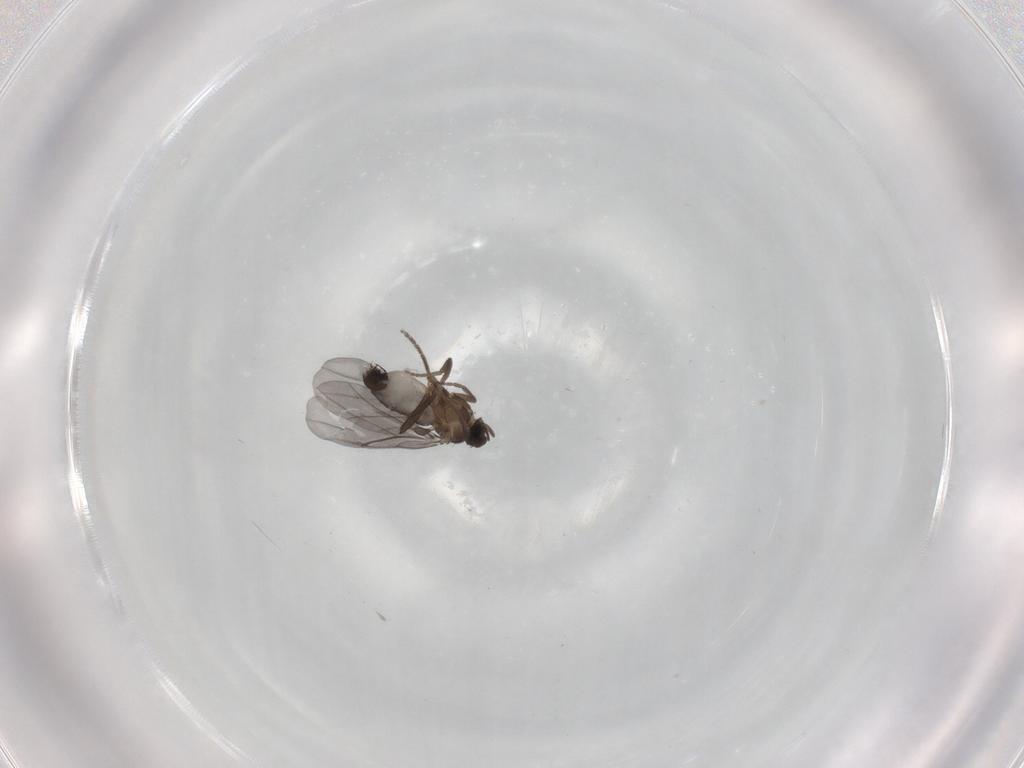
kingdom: Animalia
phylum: Arthropoda
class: Insecta
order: Diptera
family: Phoridae
